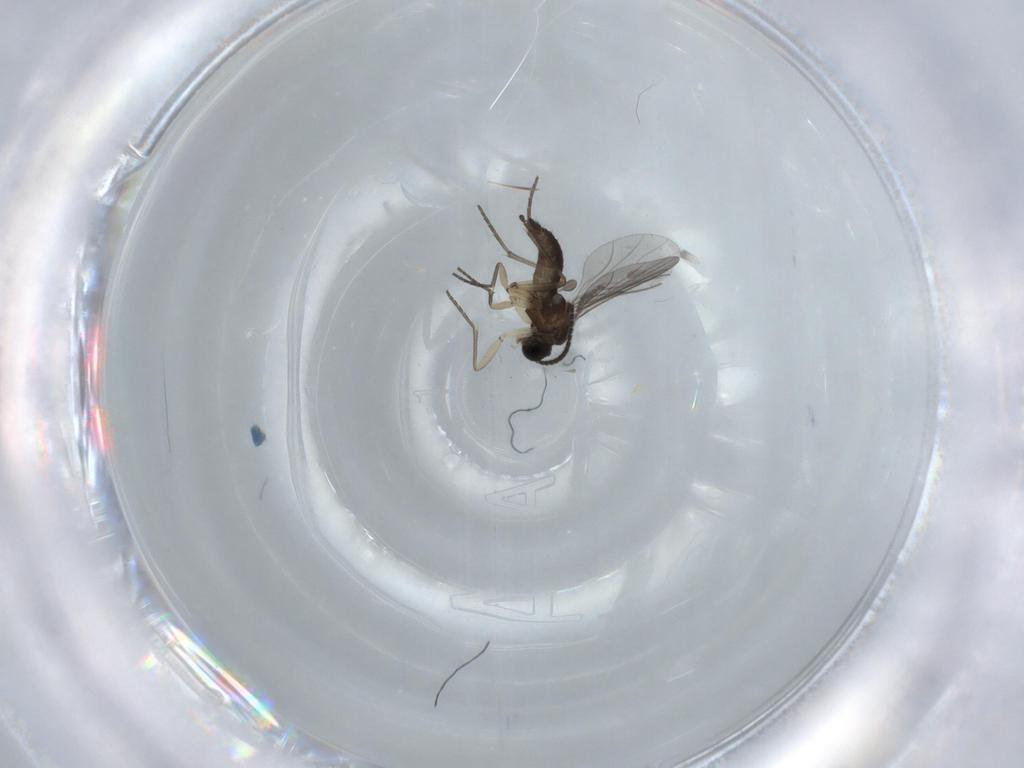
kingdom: Animalia
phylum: Arthropoda
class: Insecta
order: Diptera
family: Sciaridae
